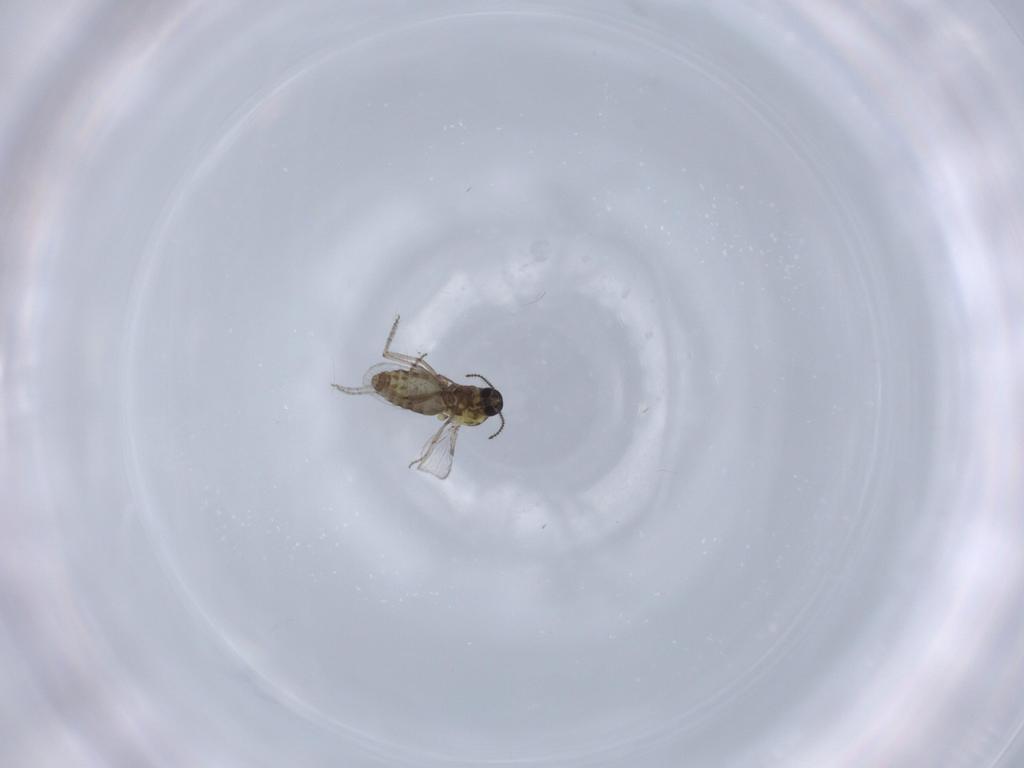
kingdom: Animalia
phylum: Arthropoda
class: Insecta
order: Diptera
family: Ceratopogonidae
